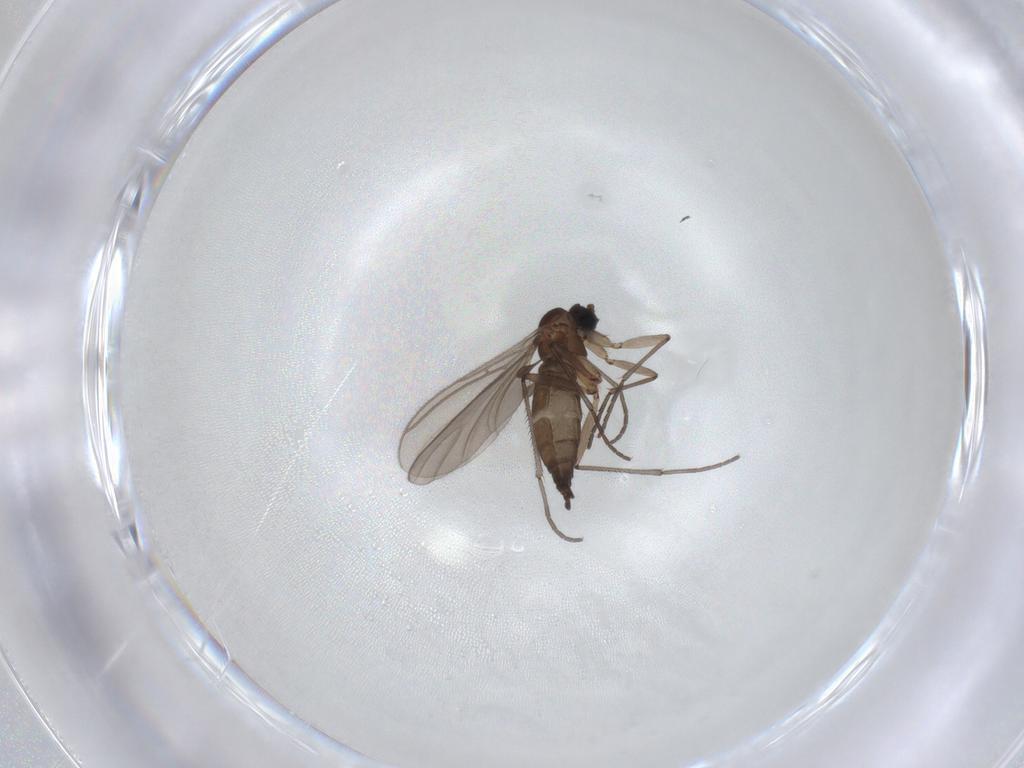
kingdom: Animalia
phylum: Arthropoda
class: Insecta
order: Diptera
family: Sciaridae
